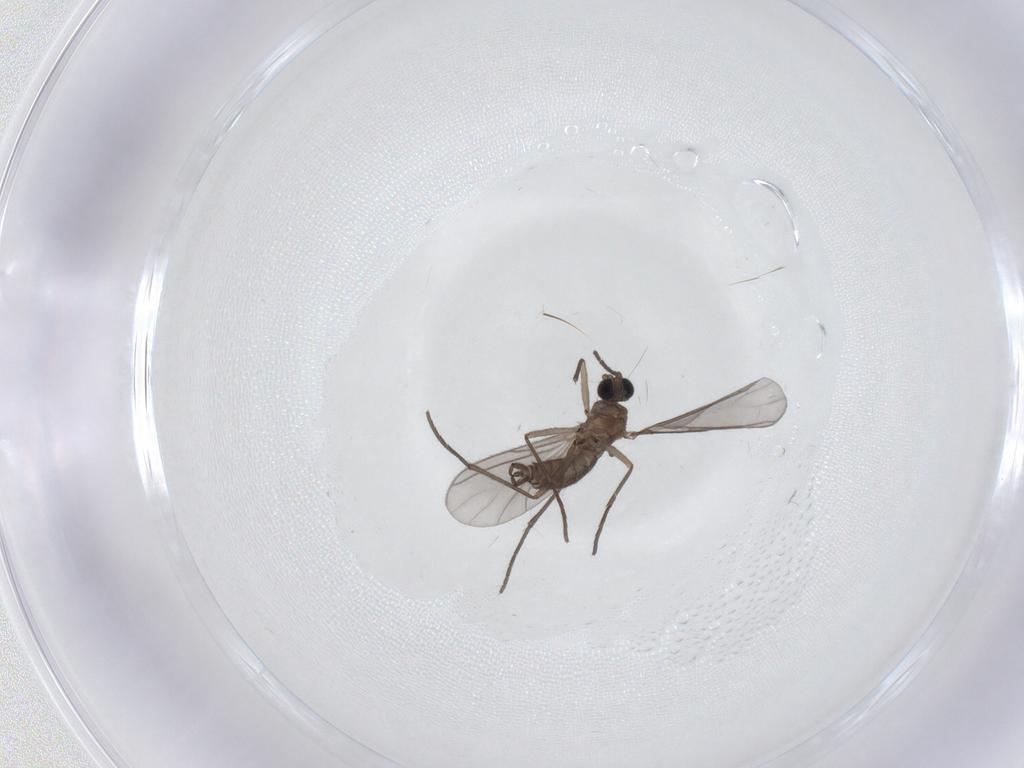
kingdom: Animalia
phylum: Arthropoda
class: Insecta
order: Diptera
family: Sciaridae
